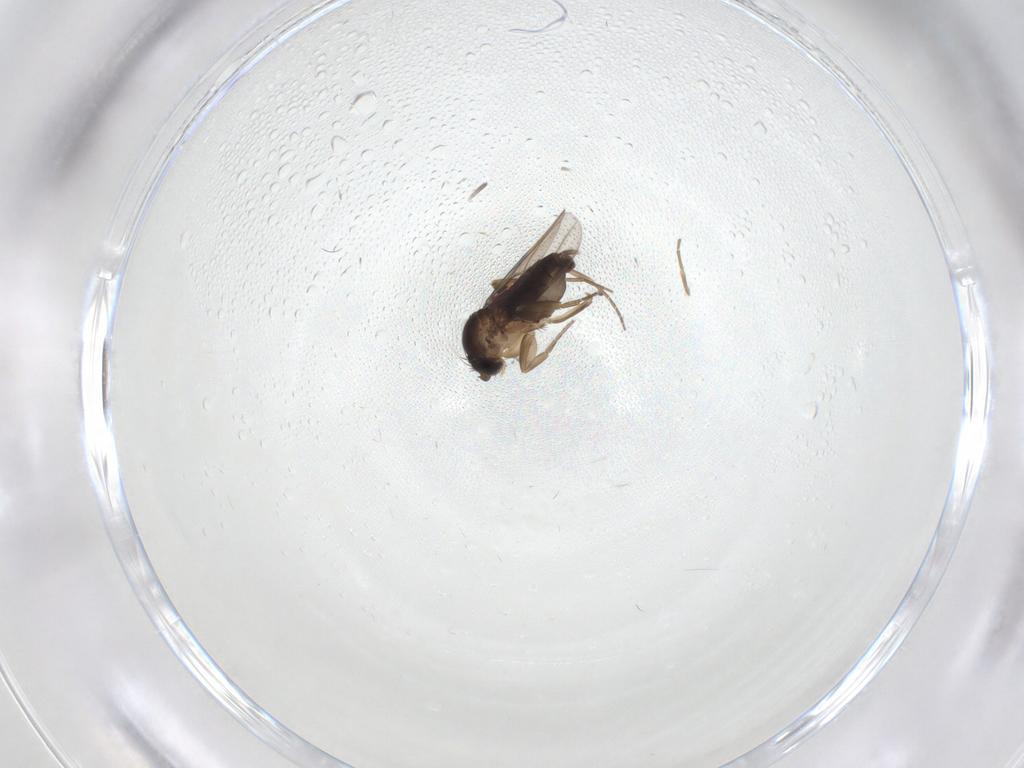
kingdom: Animalia
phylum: Arthropoda
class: Insecta
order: Diptera
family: Phoridae
